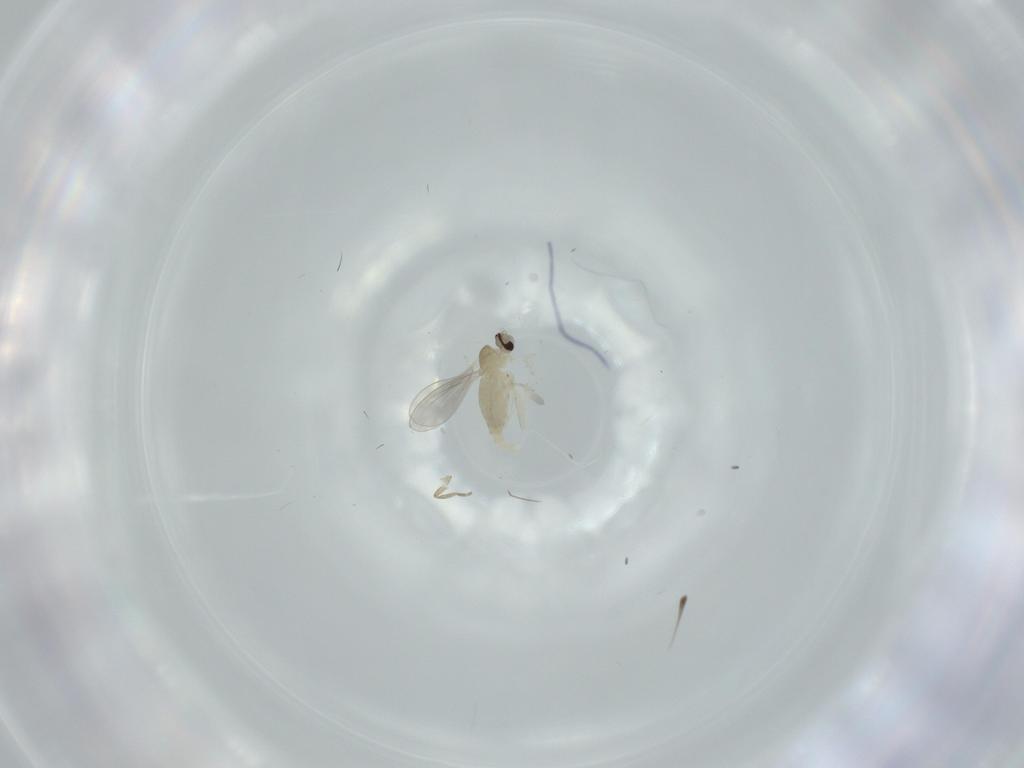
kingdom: Animalia
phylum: Arthropoda
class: Insecta
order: Diptera
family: Cecidomyiidae
